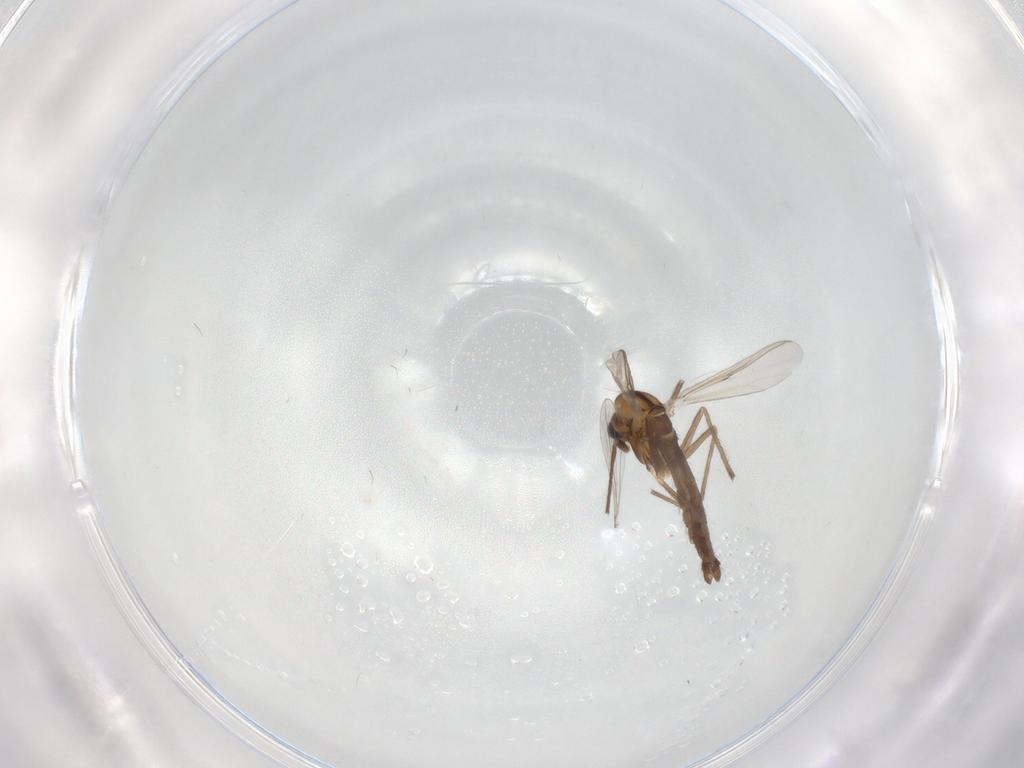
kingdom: Animalia
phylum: Arthropoda
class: Insecta
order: Diptera
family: Chironomidae
